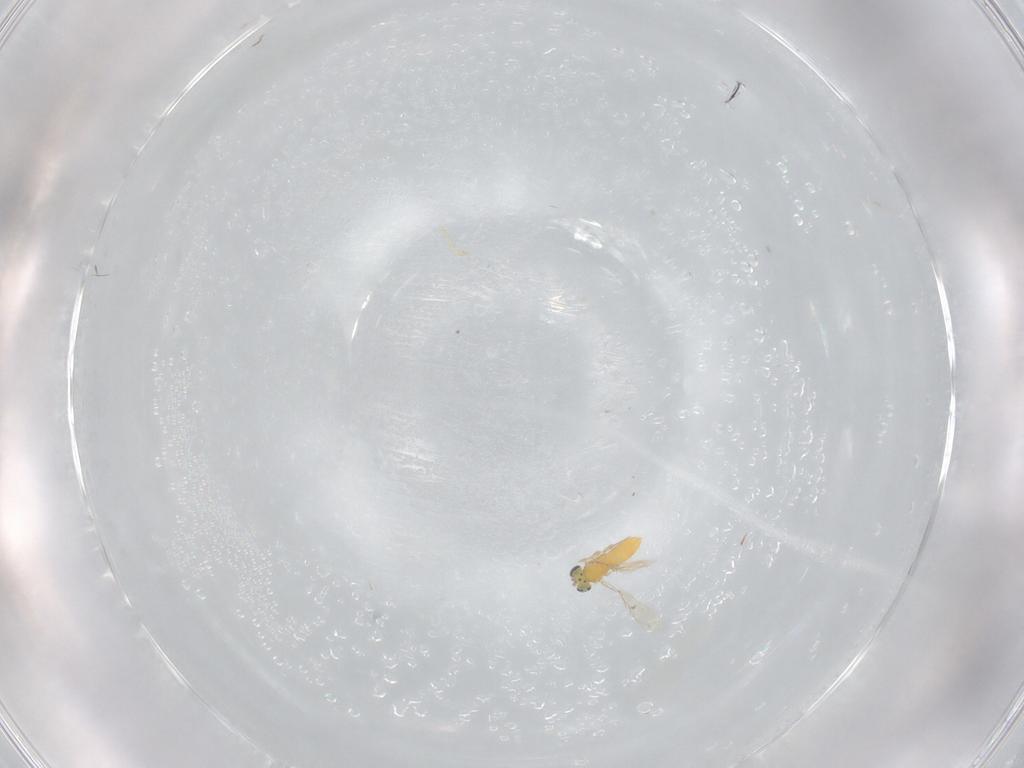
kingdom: Animalia
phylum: Arthropoda
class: Insecta
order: Hymenoptera
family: Trichogrammatidae
